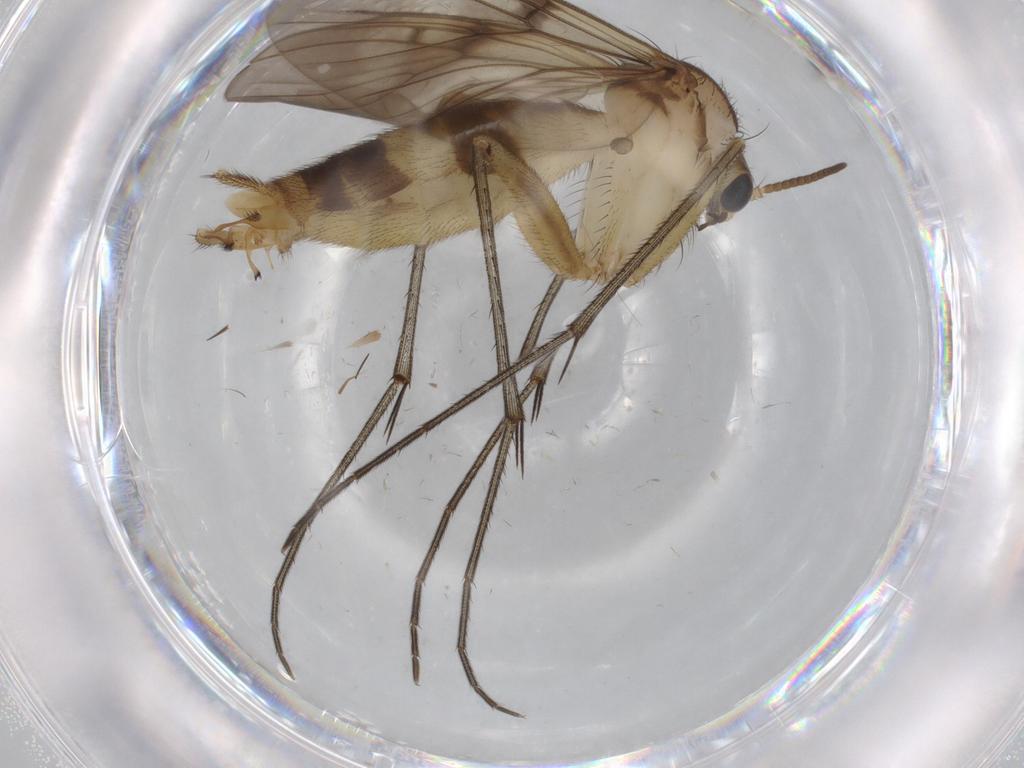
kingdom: Animalia
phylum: Arthropoda
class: Insecta
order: Diptera
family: Mycetophilidae
